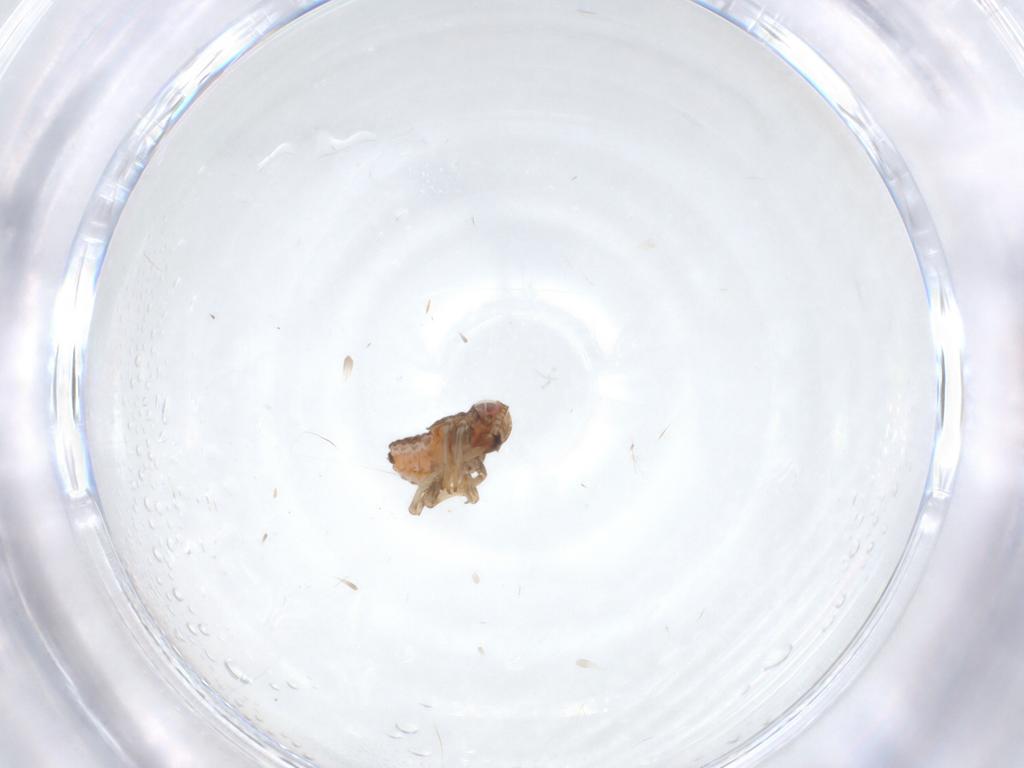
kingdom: Animalia
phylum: Arthropoda
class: Insecta
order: Hemiptera
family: Issidae
